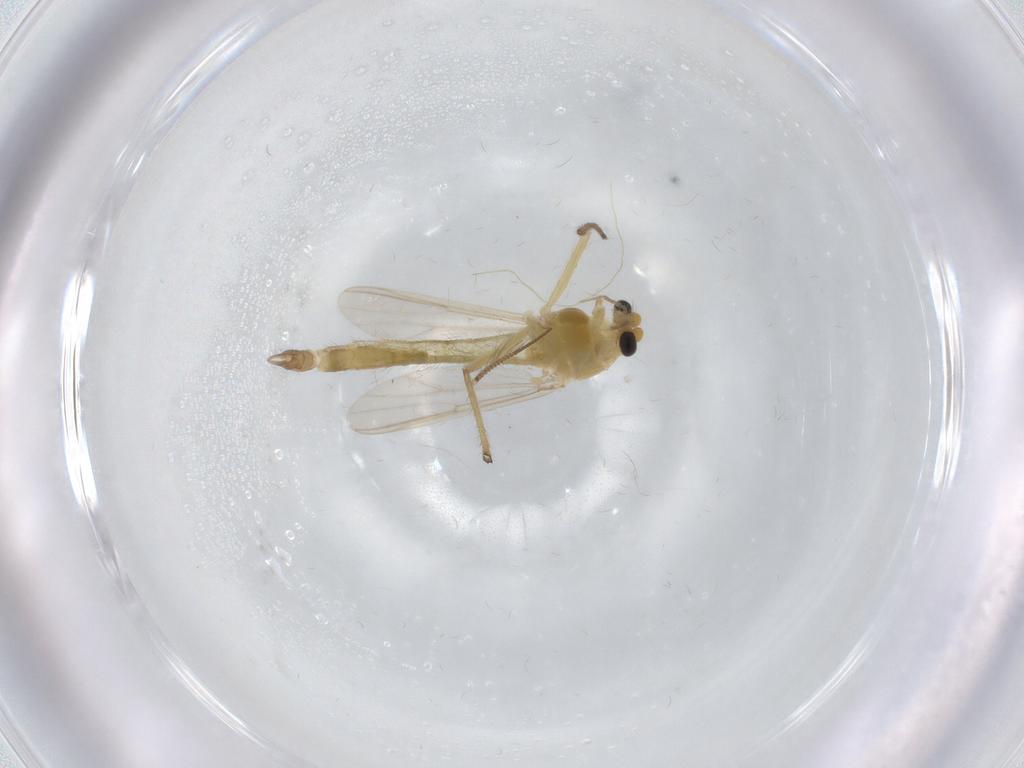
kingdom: Animalia
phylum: Arthropoda
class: Insecta
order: Diptera
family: Chironomidae
